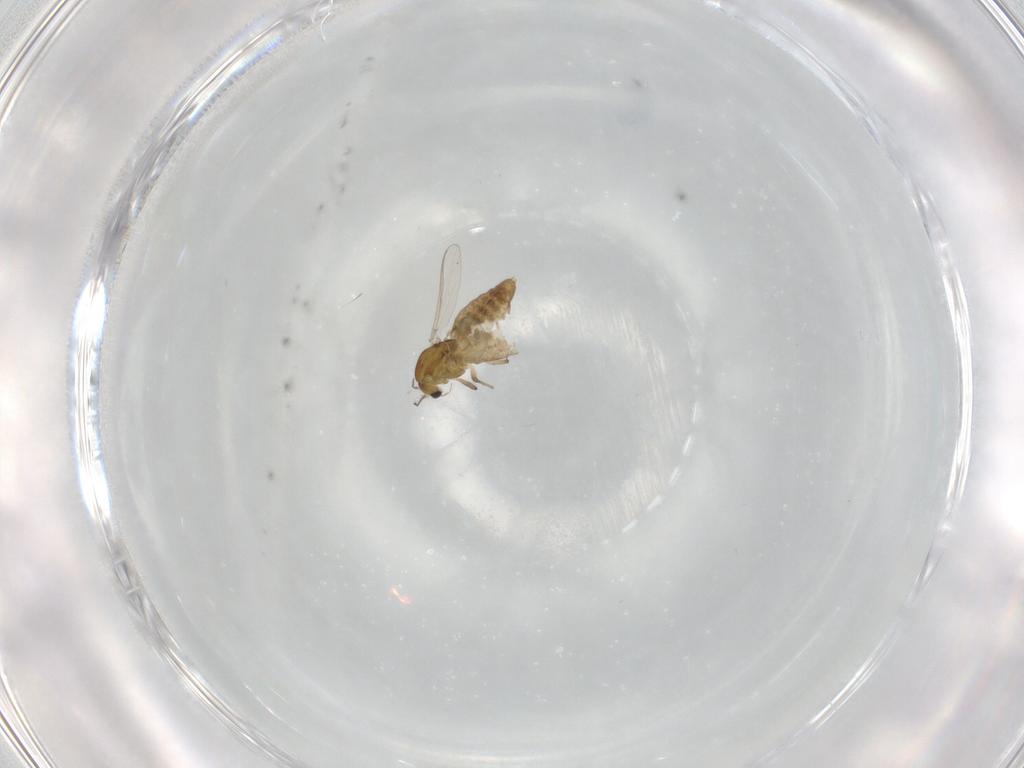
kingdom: Animalia
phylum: Arthropoda
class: Insecta
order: Diptera
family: Chironomidae
